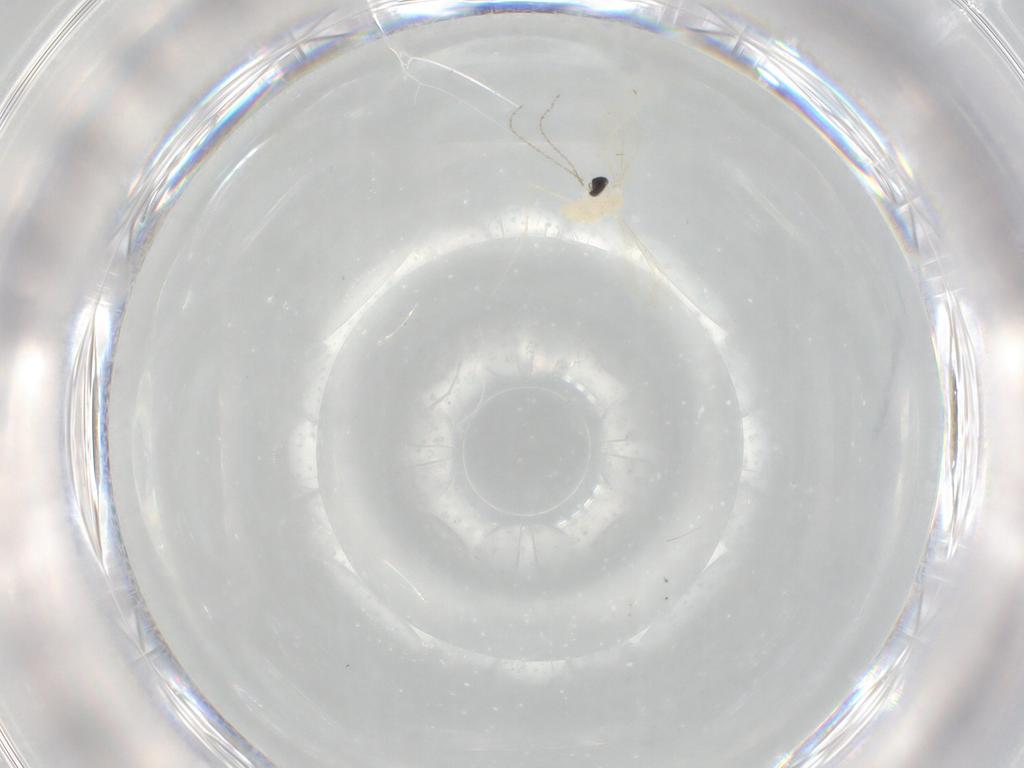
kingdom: Animalia
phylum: Arthropoda
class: Insecta
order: Diptera
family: Cecidomyiidae
